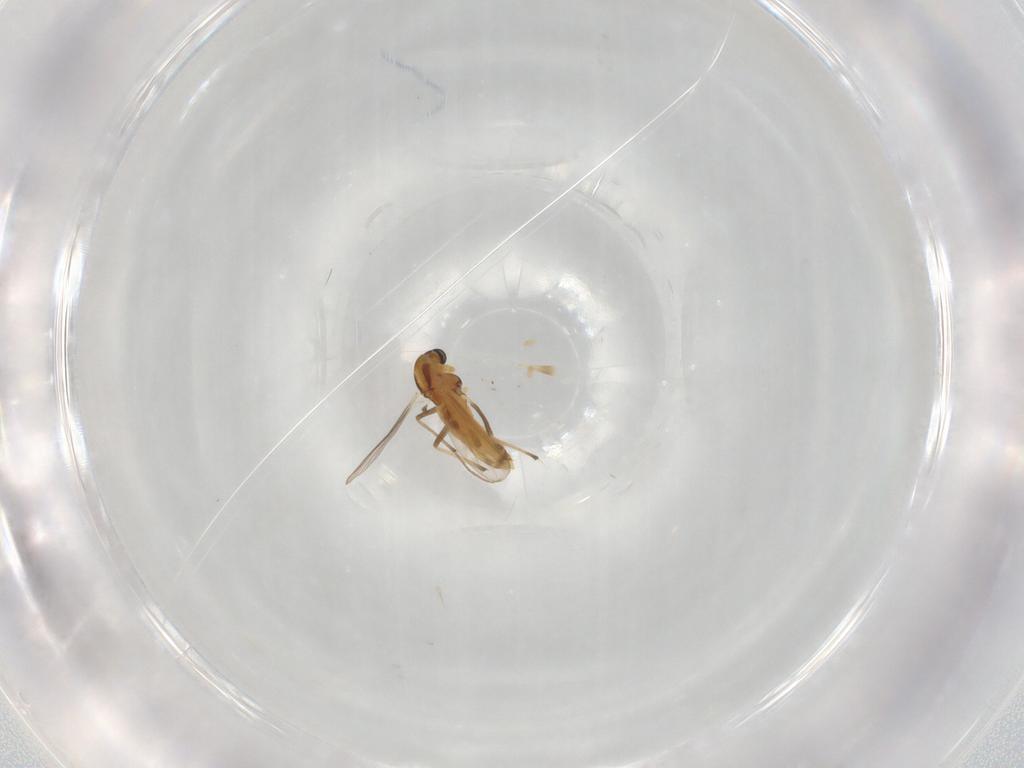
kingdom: Animalia
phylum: Arthropoda
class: Insecta
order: Diptera
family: Ceratopogonidae
